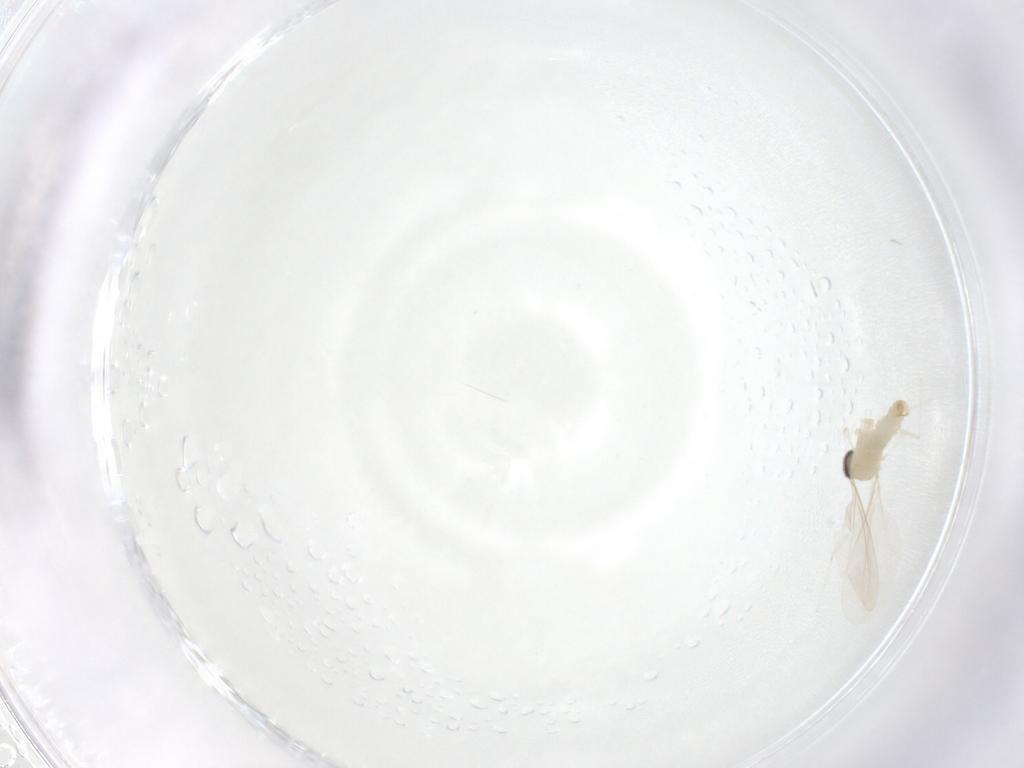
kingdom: Animalia
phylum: Arthropoda
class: Insecta
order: Diptera
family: Cecidomyiidae
